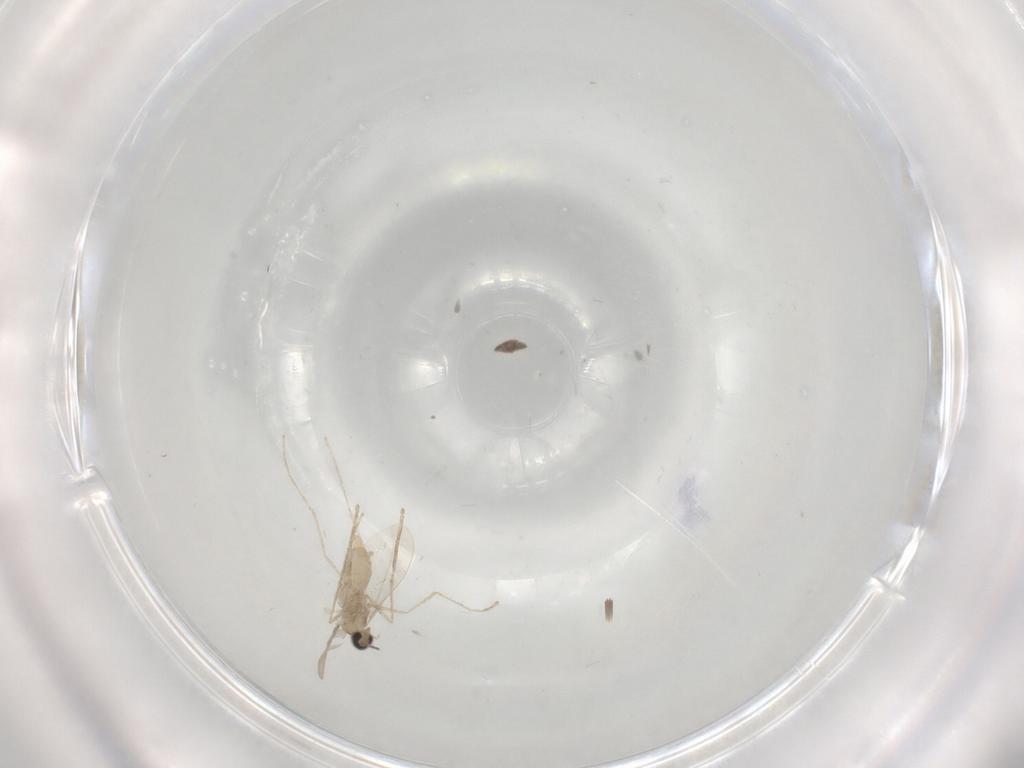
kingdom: Animalia
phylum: Arthropoda
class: Insecta
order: Diptera
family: Cecidomyiidae
